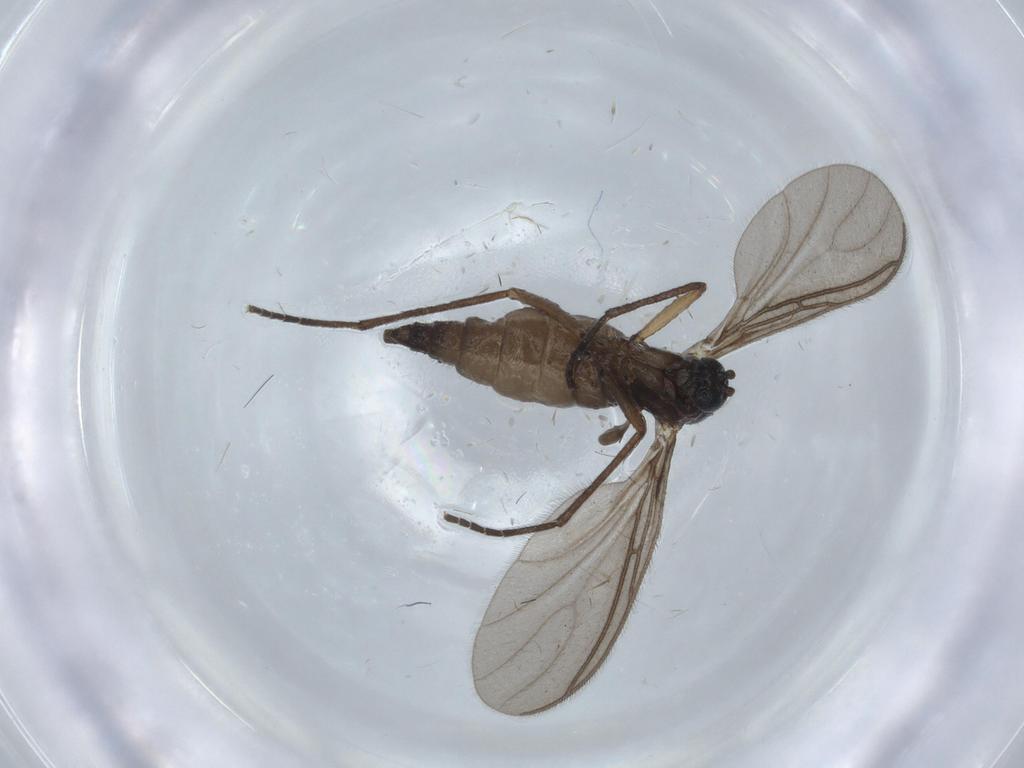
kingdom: Animalia
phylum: Arthropoda
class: Insecta
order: Diptera
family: Sciaridae
